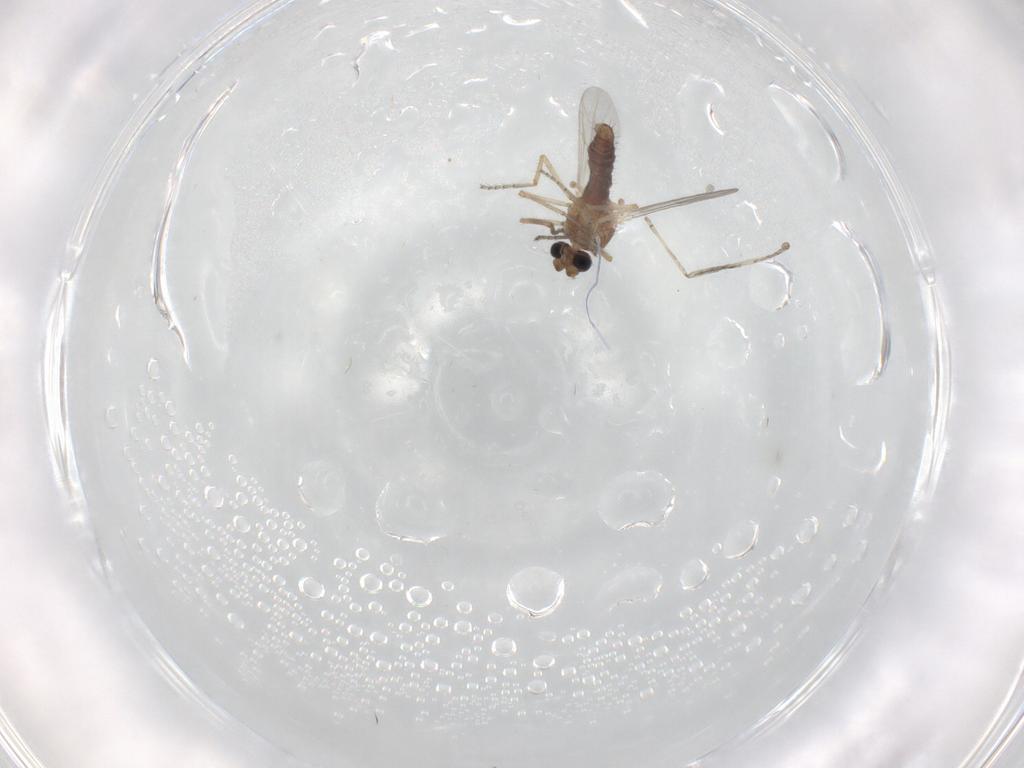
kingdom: Animalia
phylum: Arthropoda
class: Insecta
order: Diptera
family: Ceratopogonidae
